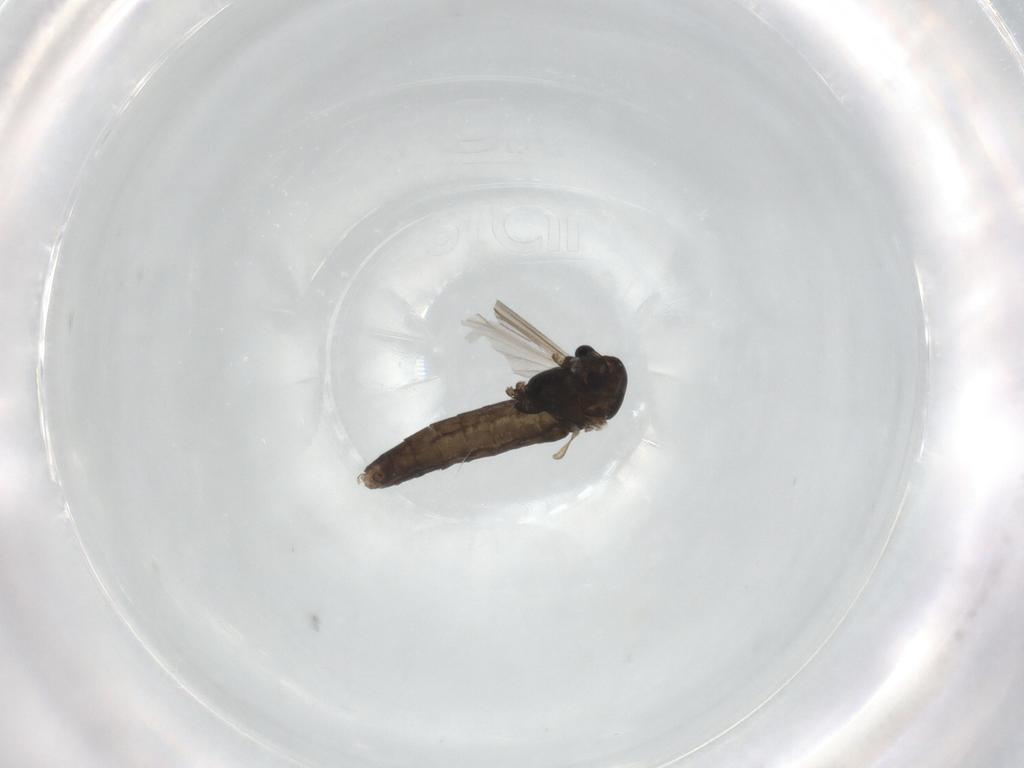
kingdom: Animalia
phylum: Arthropoda
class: Insecta
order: Diptera
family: Chironomidae
